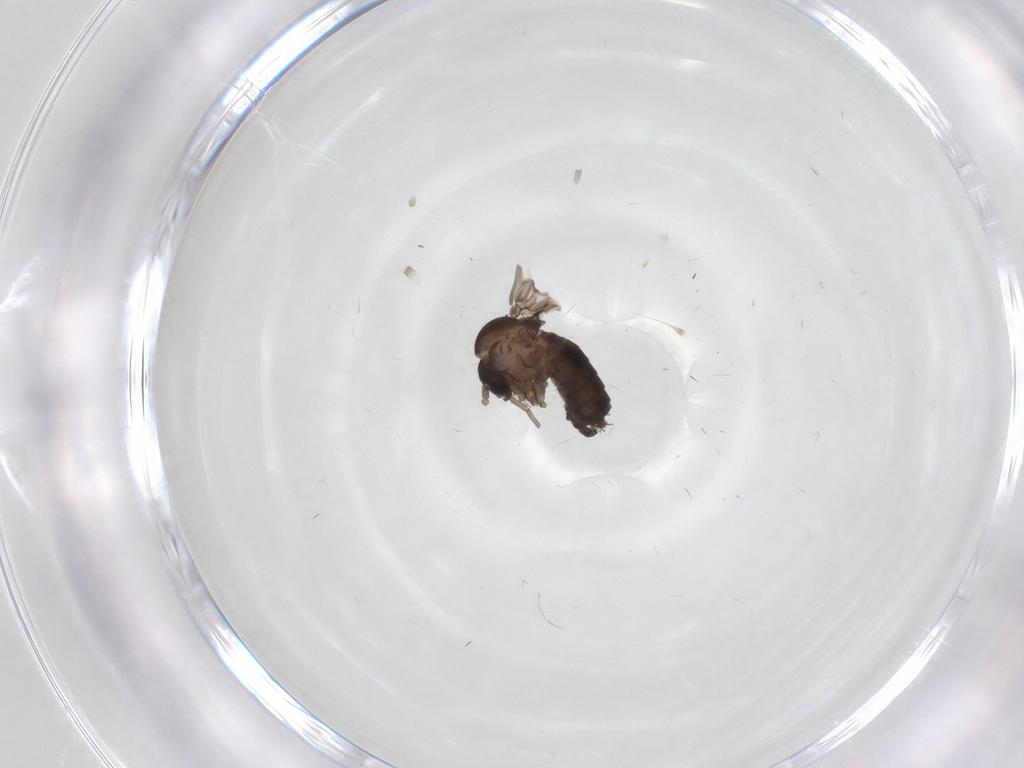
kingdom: Animalia
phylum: Arthropoda
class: Insecta
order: Diptera
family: Psychodidae
